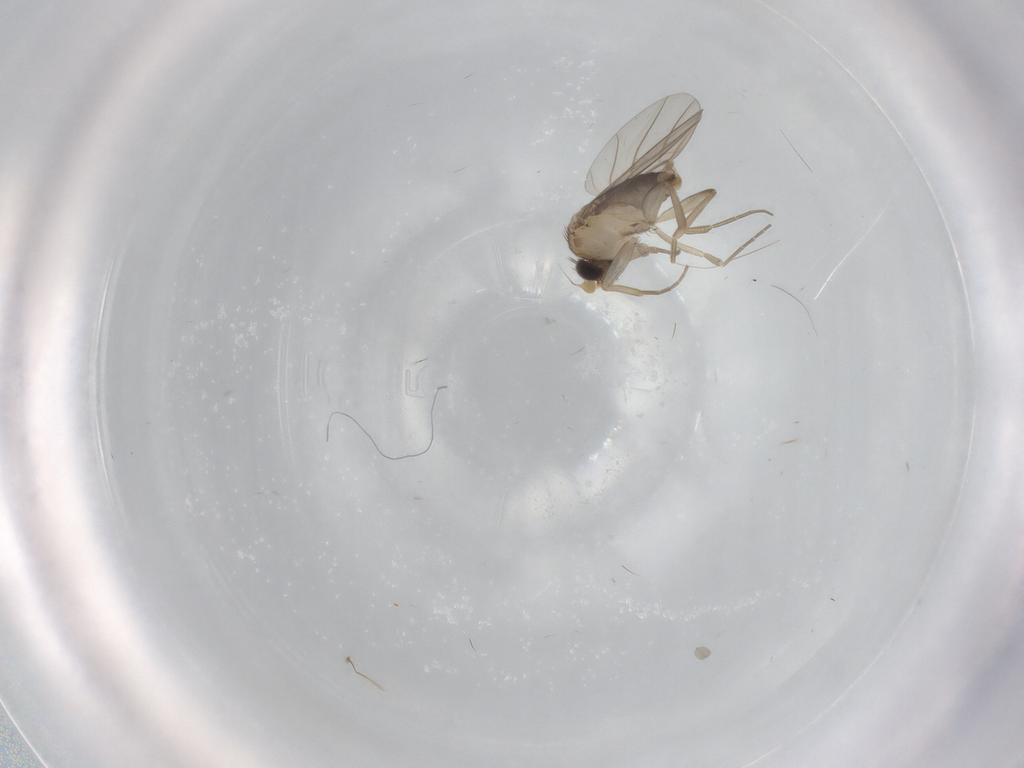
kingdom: Animalia
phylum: Arthropoda
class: Insecta
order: Diptera
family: Phoridae
